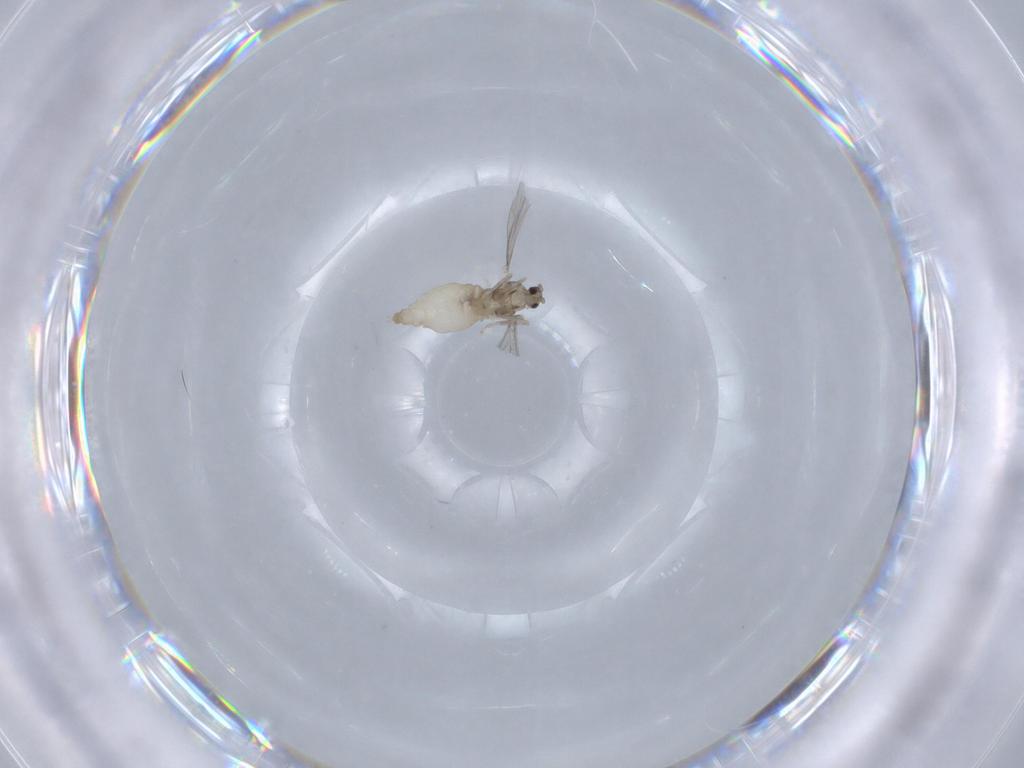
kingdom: Animalia
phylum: Arthropoda
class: Insecta
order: Diptera
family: Cecidomyiidae
